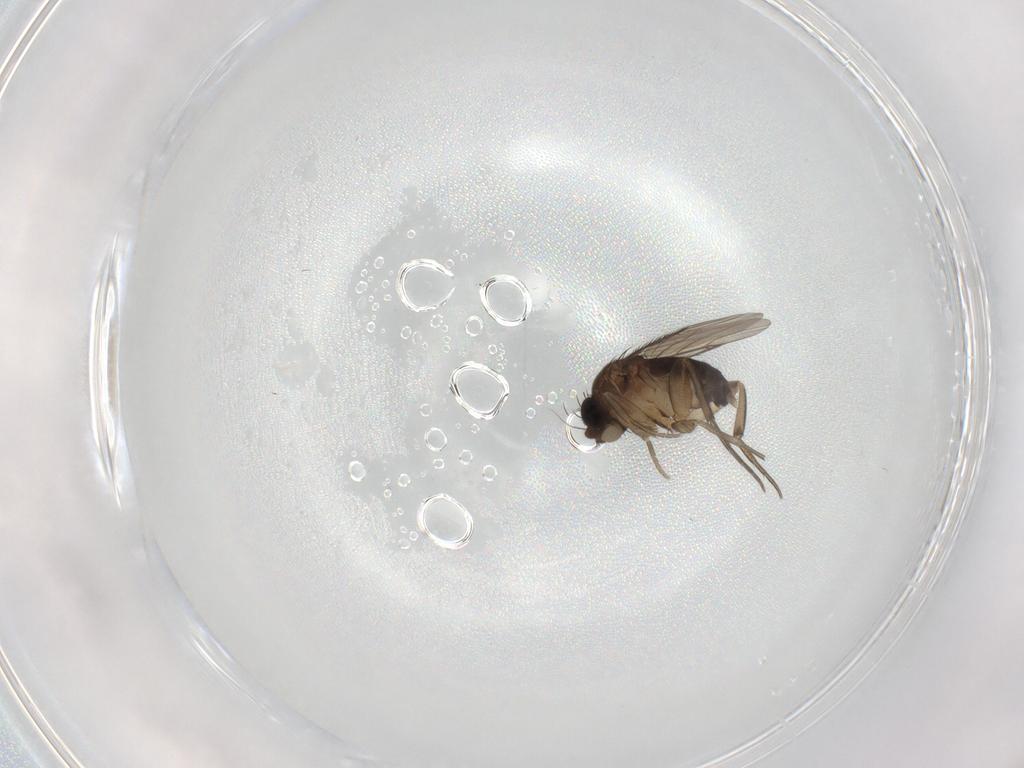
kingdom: Animalia
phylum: Arthropoda
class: Insecta
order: Diptera
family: Phoridae
